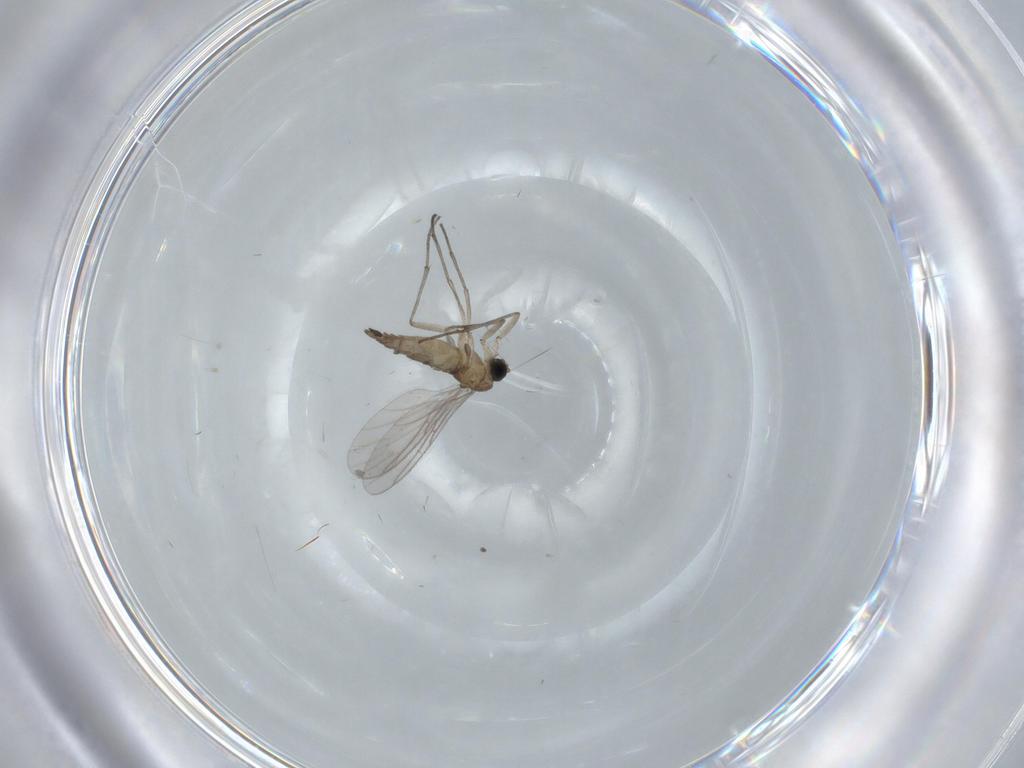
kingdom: Animalia
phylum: Arthropoda
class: Insecta
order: Diptera
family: Sciaridae
